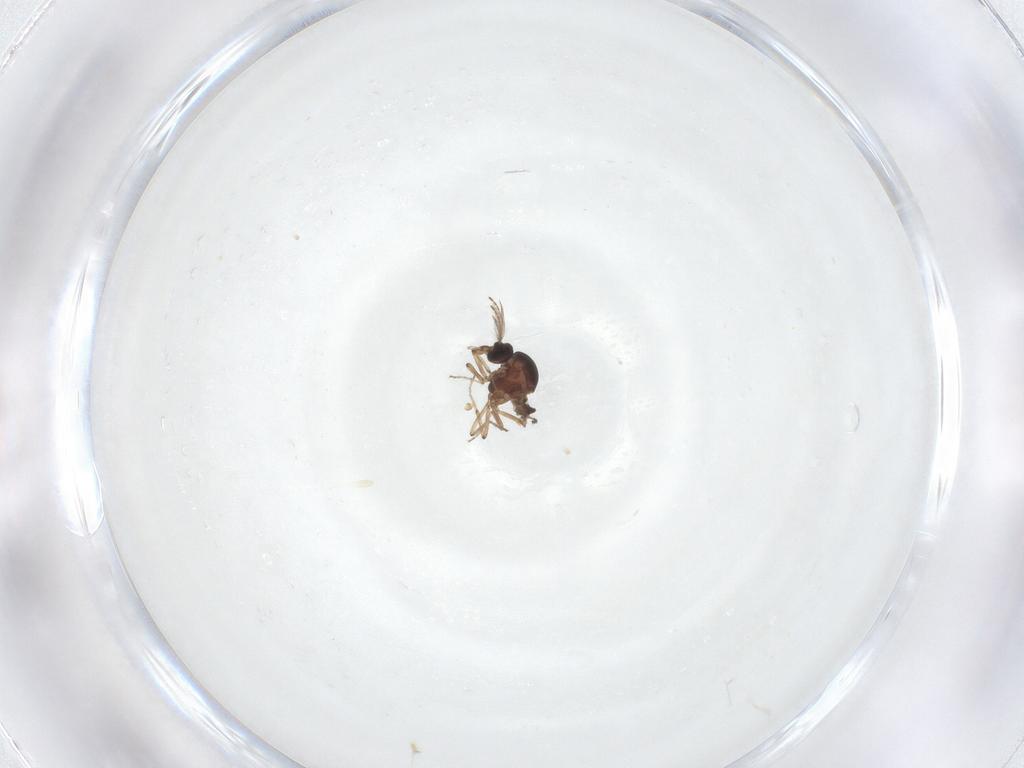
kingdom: Animalia
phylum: Arthropoda
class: Insecta
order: Diptera
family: Ceratopogonidae
